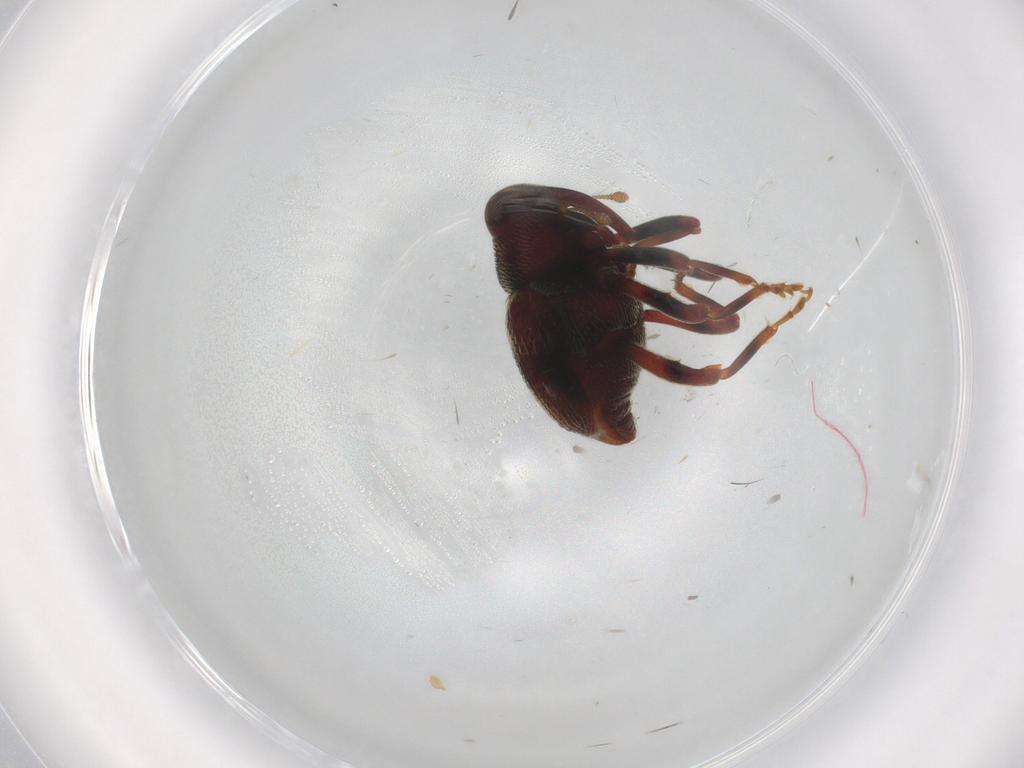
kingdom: Animalia
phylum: Arthropoda
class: Insecta
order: Coleoptera
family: Curculionidae
